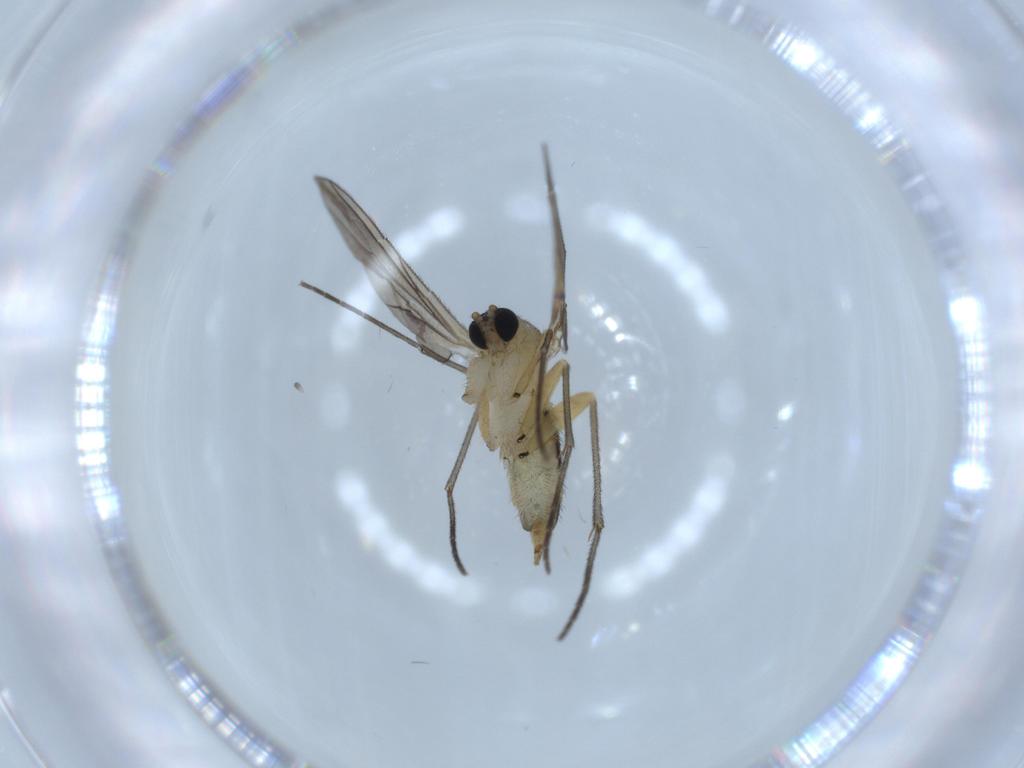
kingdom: Animalia
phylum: Arthropoda
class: Insecta
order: Diptera
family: Sciaridae
